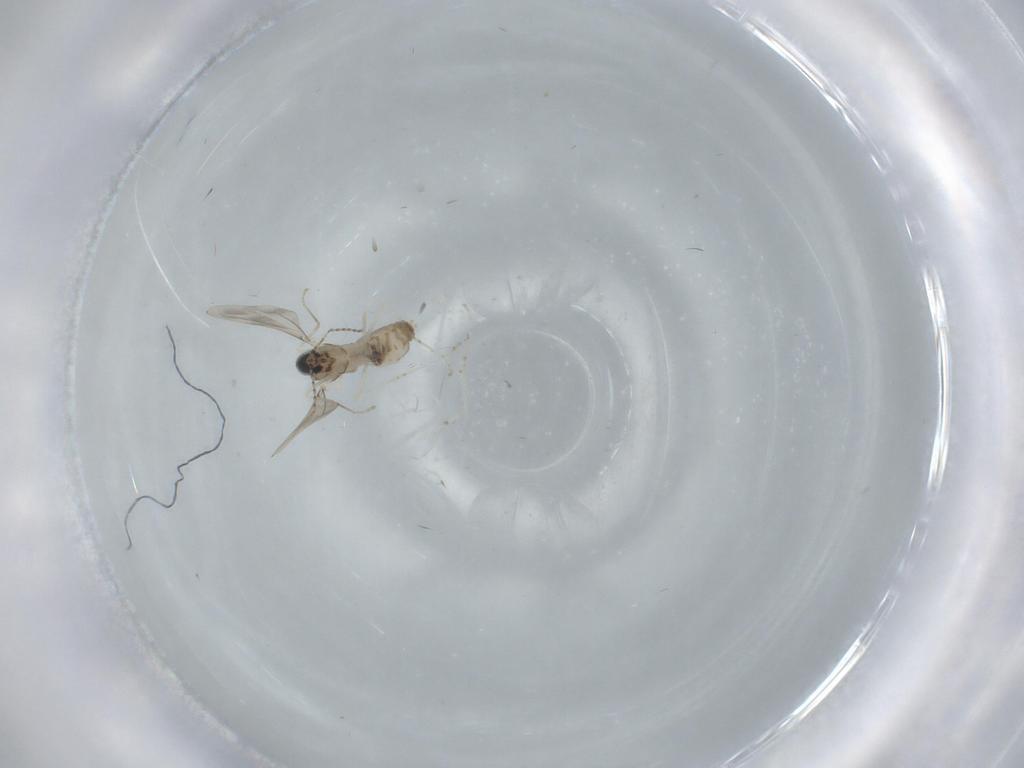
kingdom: Animalia
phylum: Arthropoda
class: Insecta
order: Diptera
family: Cecidomyiidae
